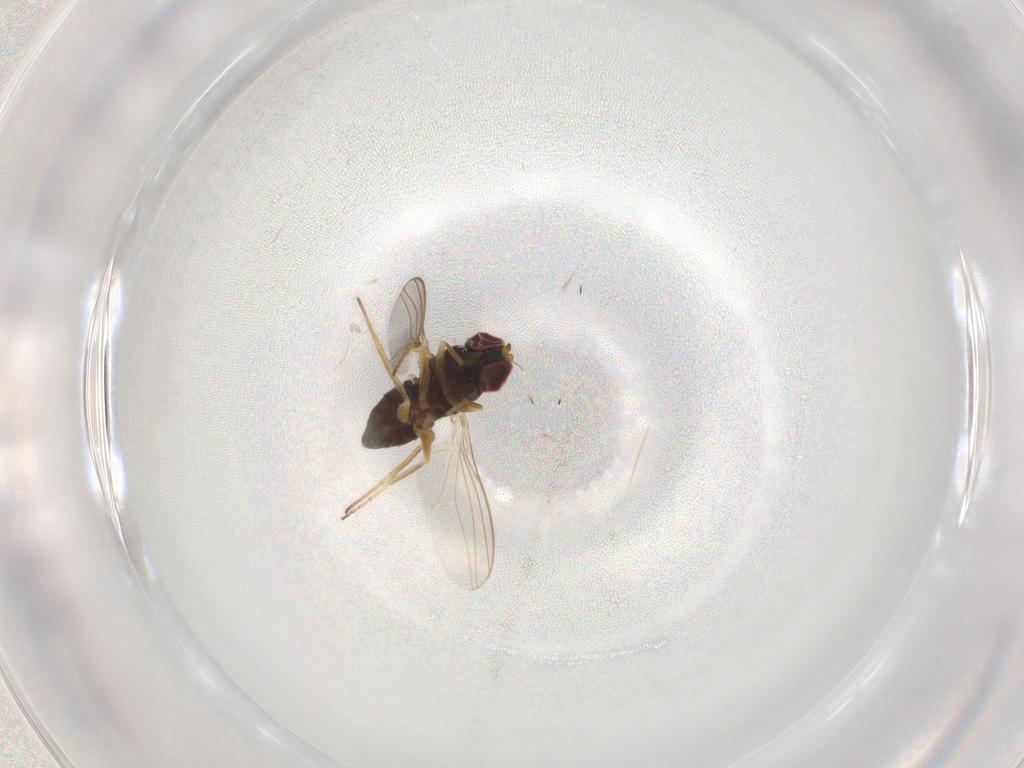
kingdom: Animalia
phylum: Arthropoda
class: Insecta
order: Diptera
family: Dolichopodidae
